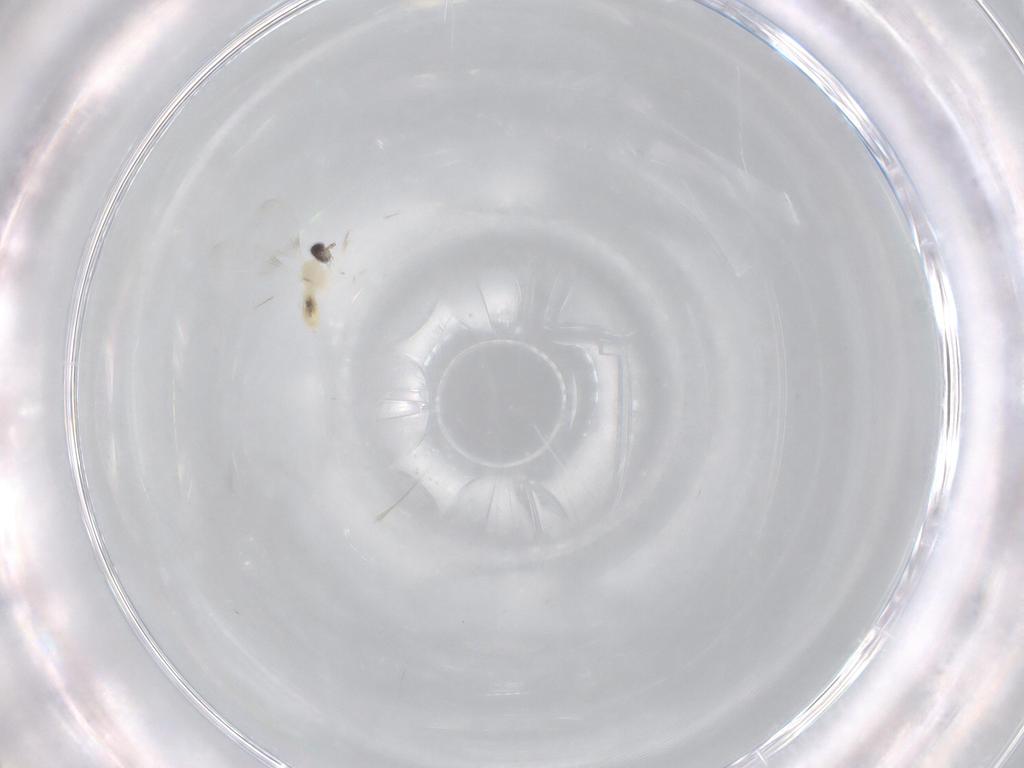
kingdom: Animalia
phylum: Arthropoda
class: Insecta
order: Diptera
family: Cecidomyiidae
